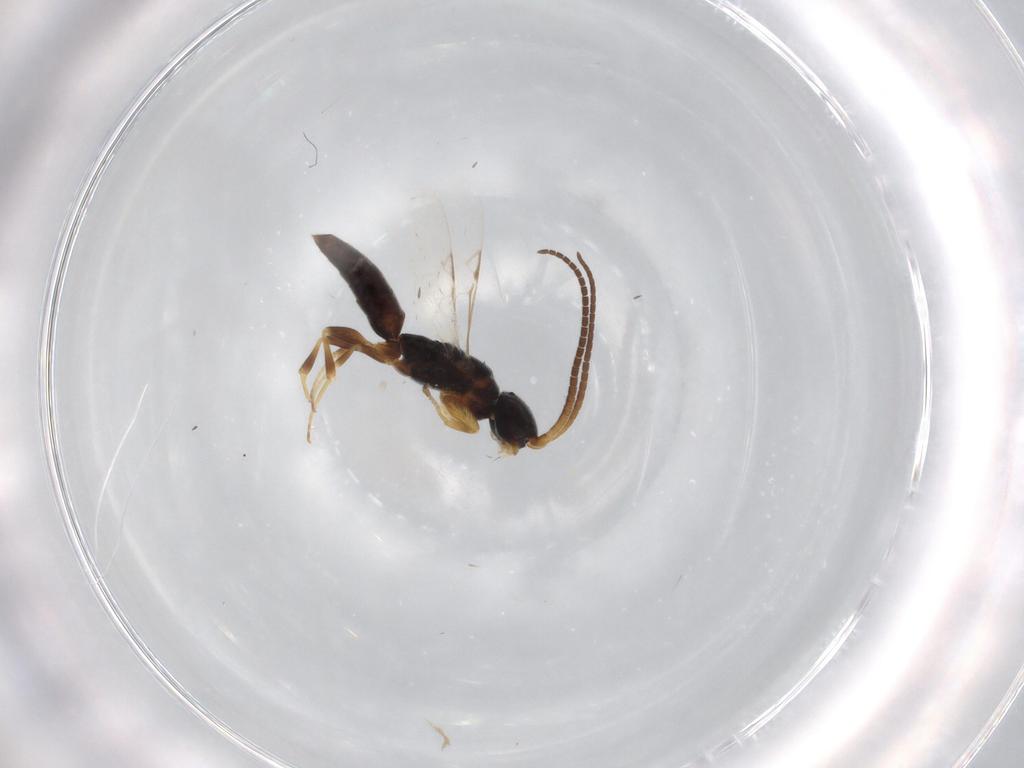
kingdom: Animalia
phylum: Arthropoda
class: Insecta
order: Hymenoptera
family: Sclerogibbidae
